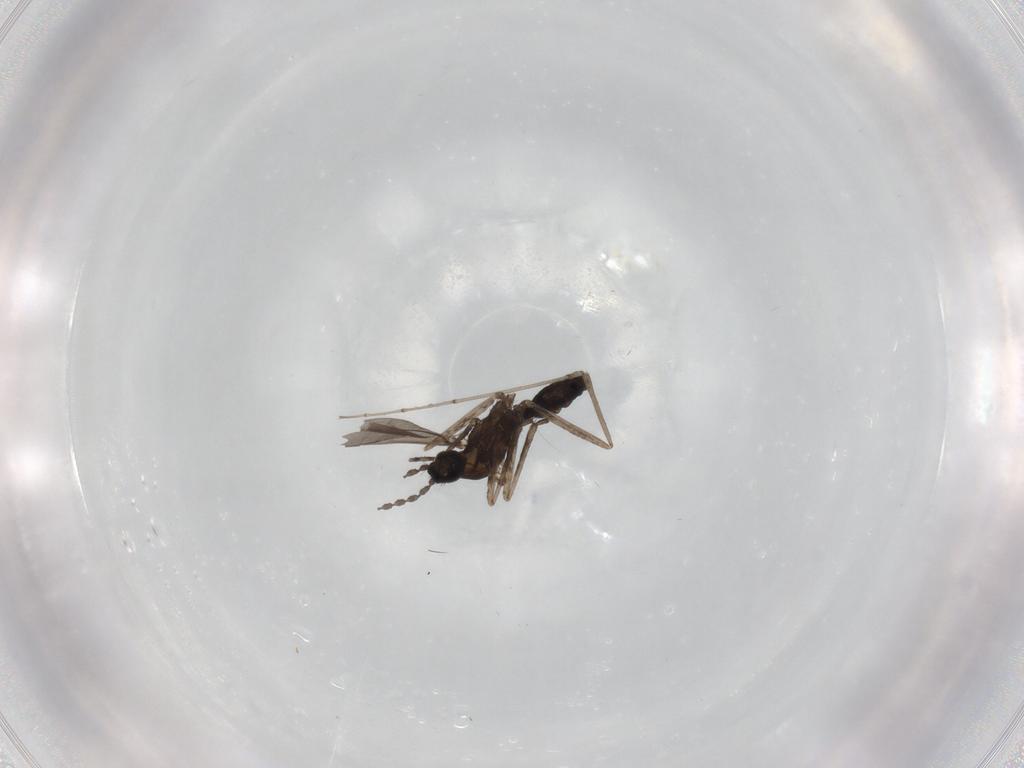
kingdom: Animalia
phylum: Arthropoda
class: Insecta
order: Diptera
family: Cecidomyiidae
